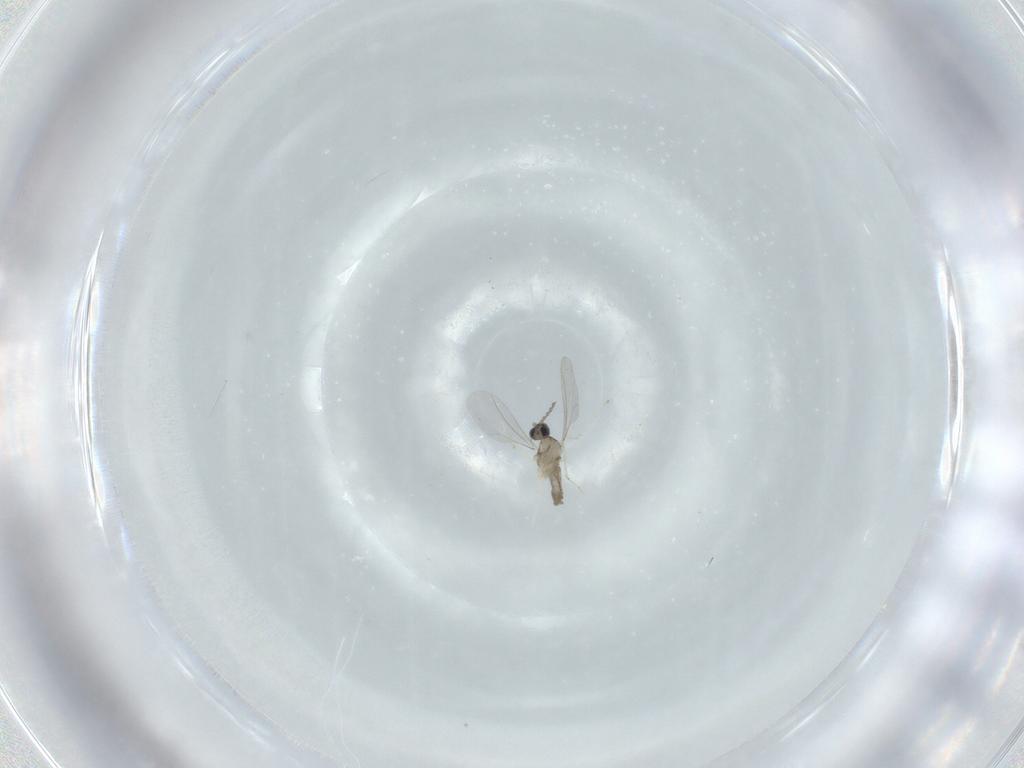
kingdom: Animalia
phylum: Arthropoda
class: Insecta
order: Diptera
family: Cecidomyiidae
